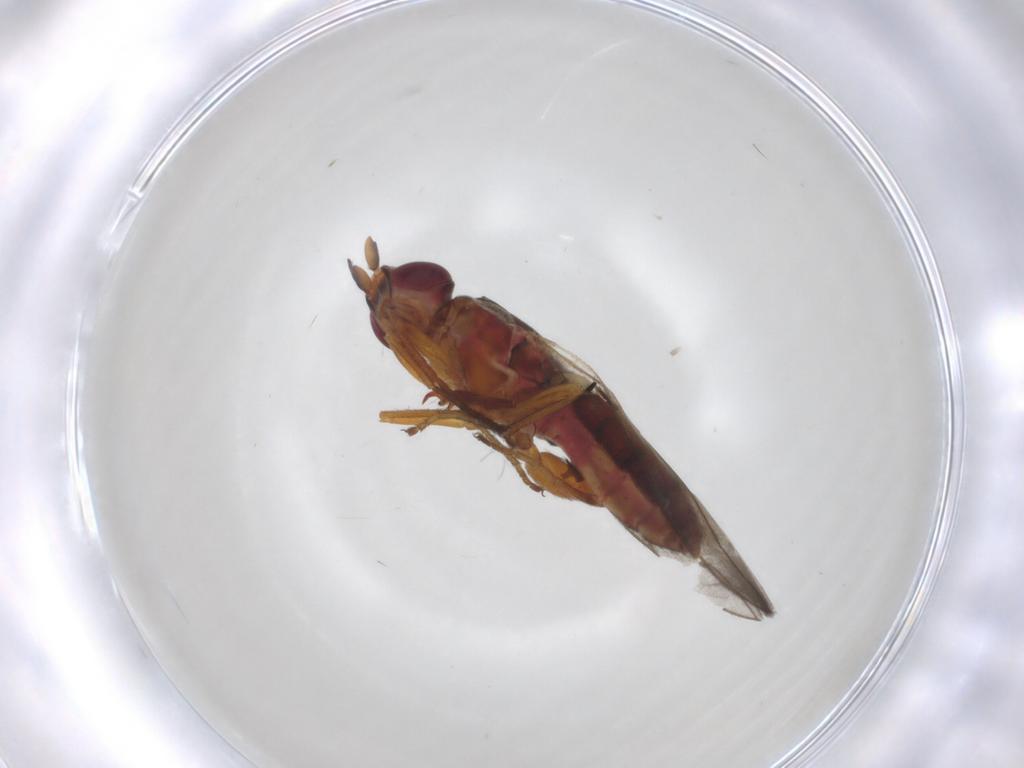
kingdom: Animalia
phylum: Arthropoda
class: Insecta
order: Diptera
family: Chloropidae
